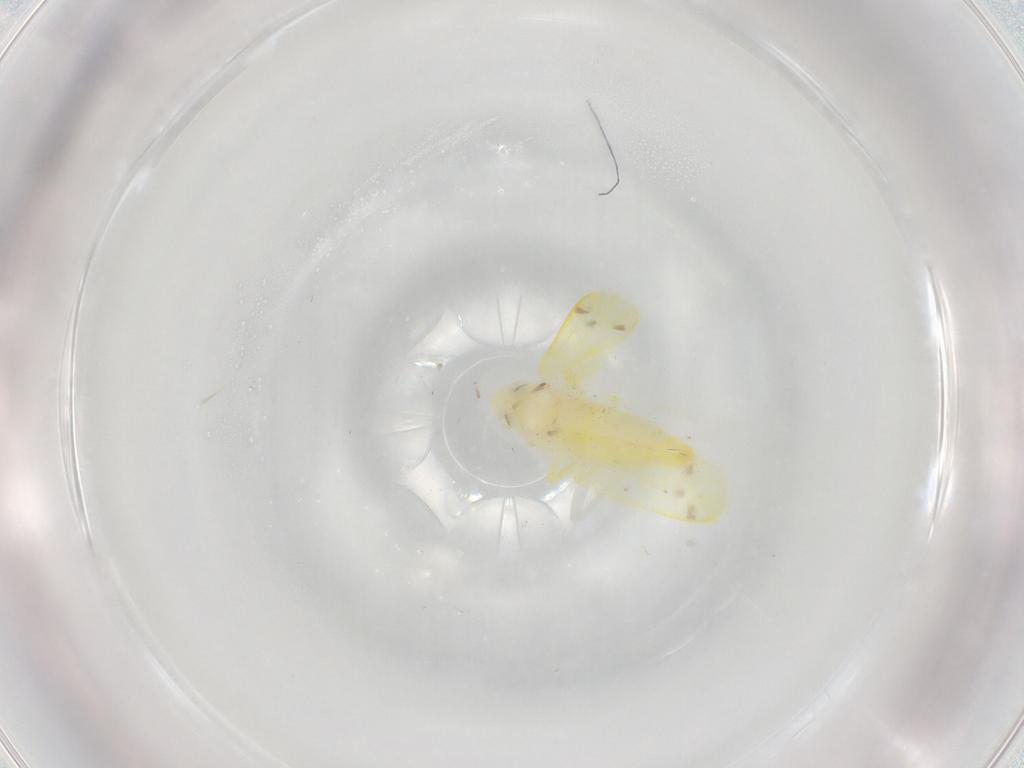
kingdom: Animalia
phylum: Arthropoda
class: Insecta
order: Hemiptera
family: Cicadellidae
